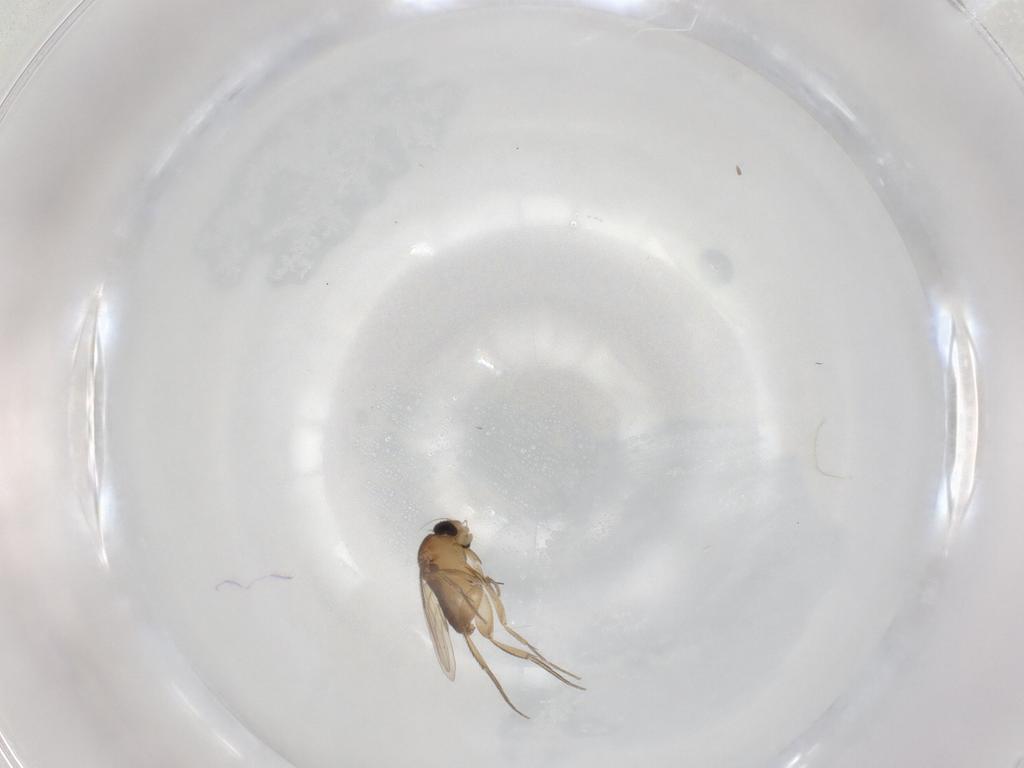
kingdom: Animalia
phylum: Arthropoda
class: Insecta
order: Diptera
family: Phoridae
